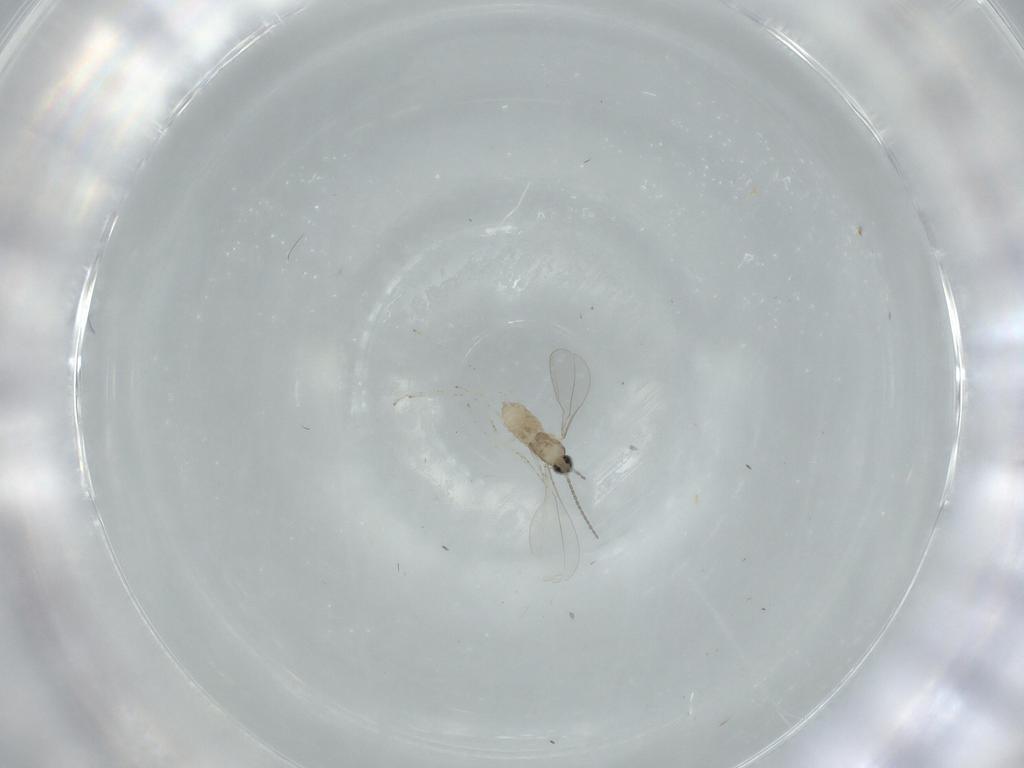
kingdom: Animalia
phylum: Arthropoda
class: Insecta
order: Diptera
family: Cecidomyiidae
